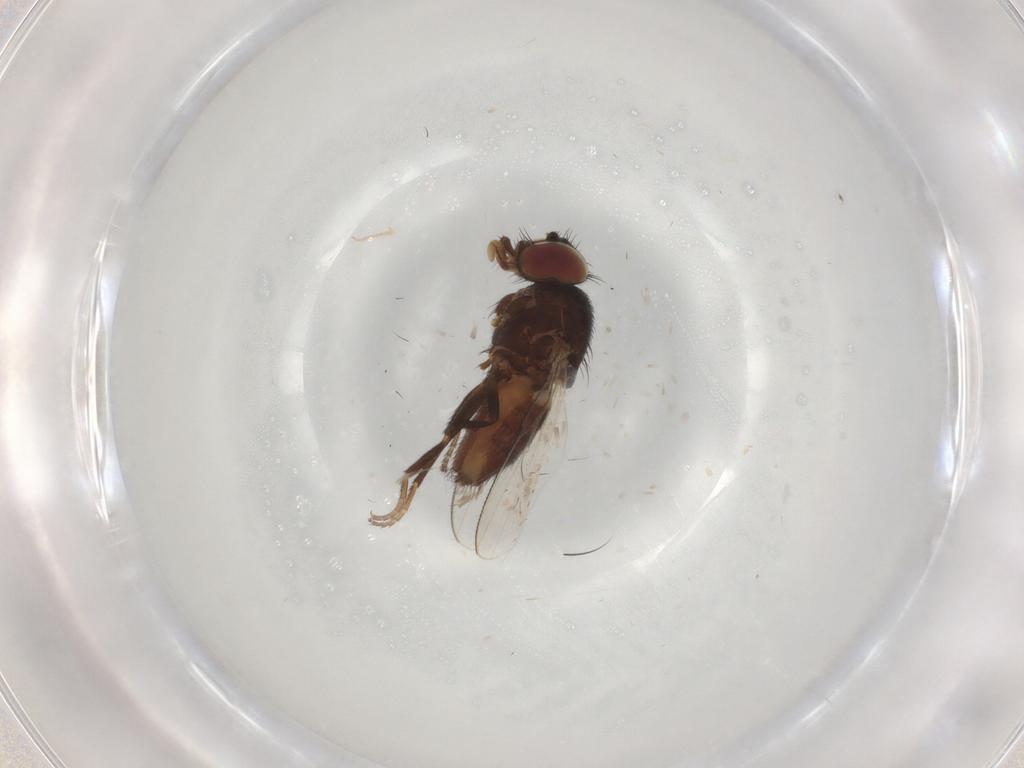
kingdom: Animalia
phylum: Arthropoda
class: Insecta
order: Diptera
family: Milichiidae
